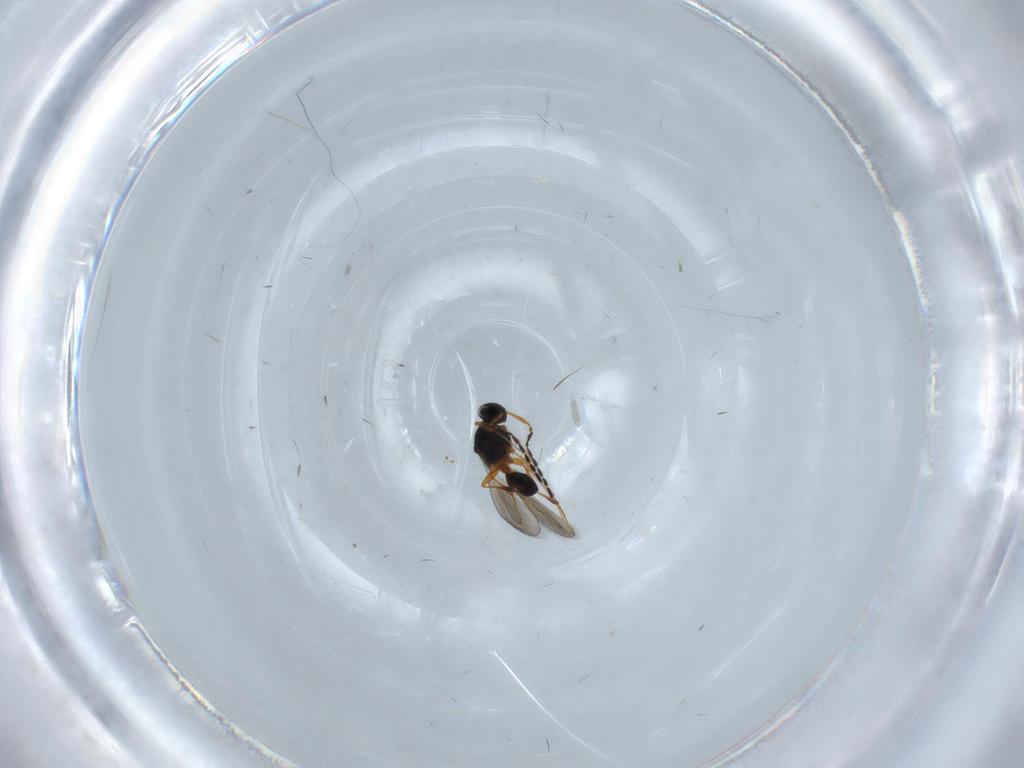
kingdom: Animalia
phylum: Arthropoda
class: Insecta
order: Hymenoptera
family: Platygastridae
